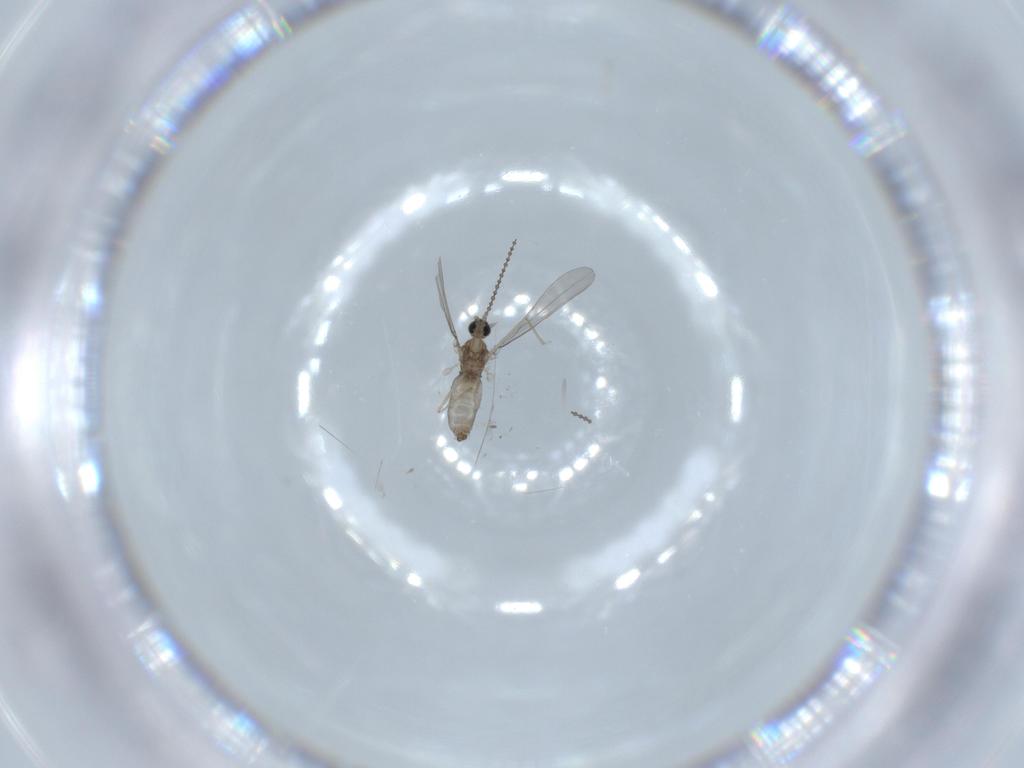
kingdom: Animalia
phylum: Arthropoda
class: Insecta
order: Diptera
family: Cecidomyiidae
